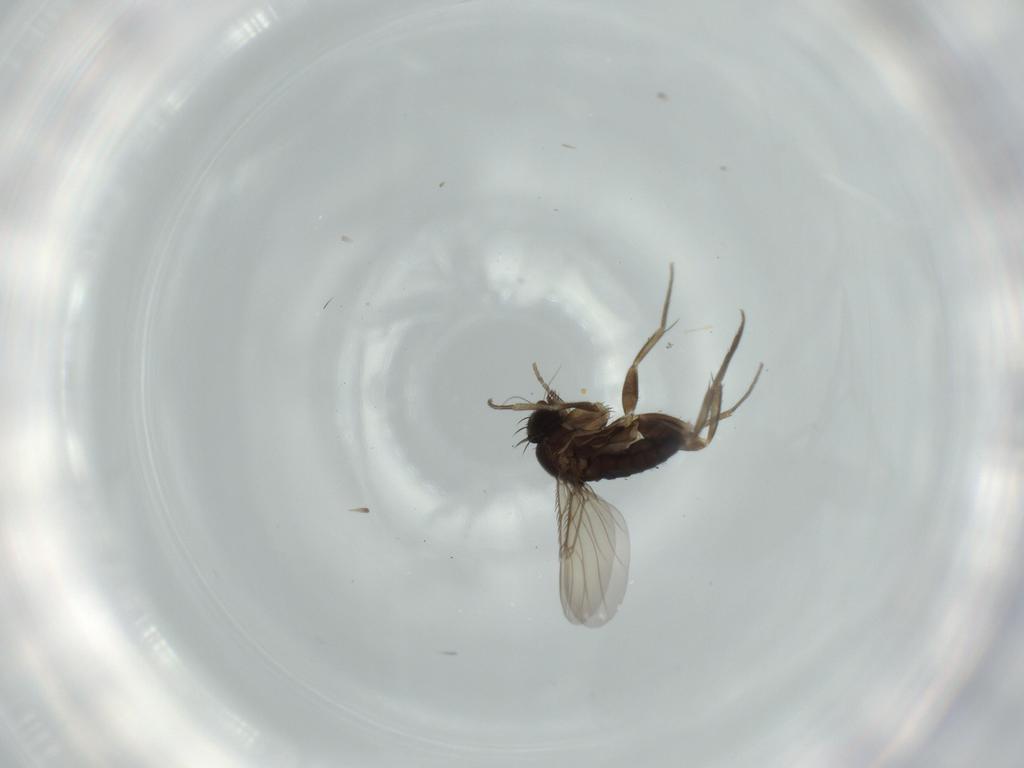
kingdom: Animalia
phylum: Arthropoda
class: Insecta
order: Diptera
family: Phoridae
